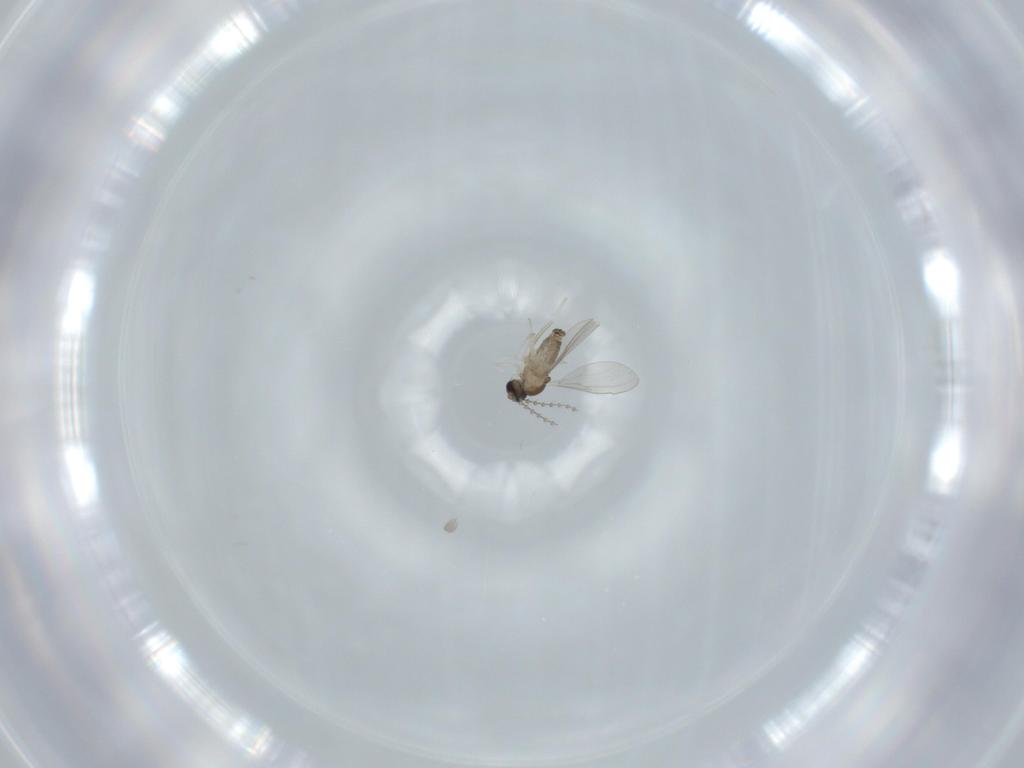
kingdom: Animalia
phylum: Arthropoda
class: Insecta
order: Diptera
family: Cecidomyiidae
